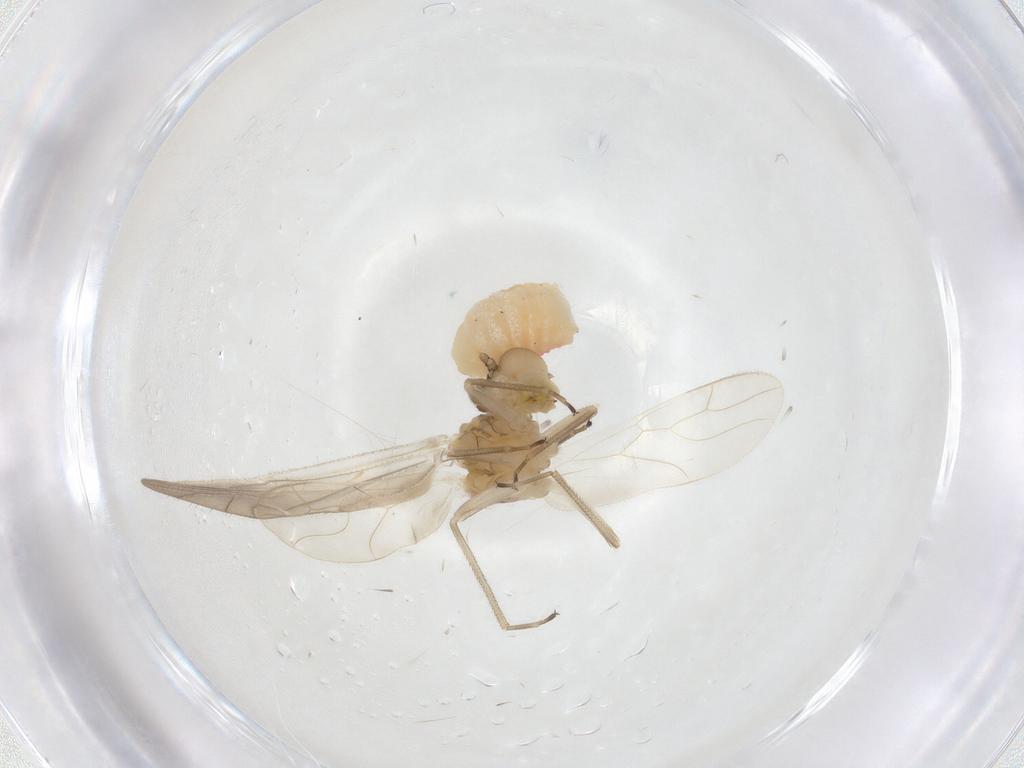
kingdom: Animalia
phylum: Arthropoda
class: Insecta
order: Psocodea
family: Caeciliusidae
